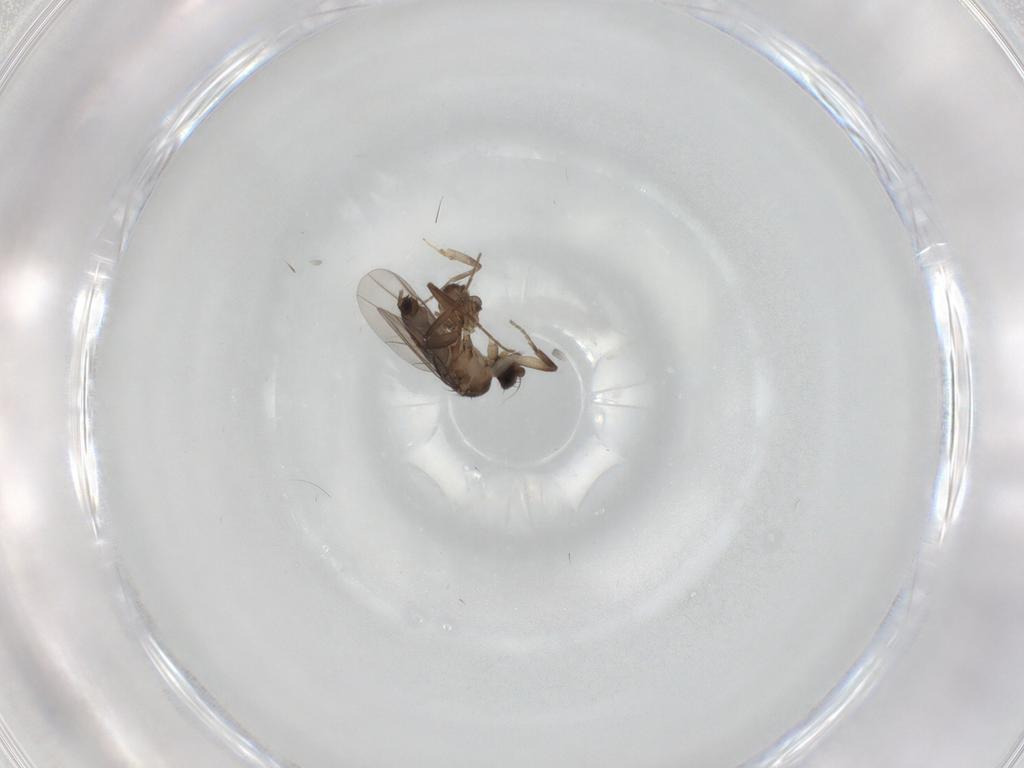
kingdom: Animalia
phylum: Arthropoda
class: Insecta
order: Diptera
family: Phoridae
